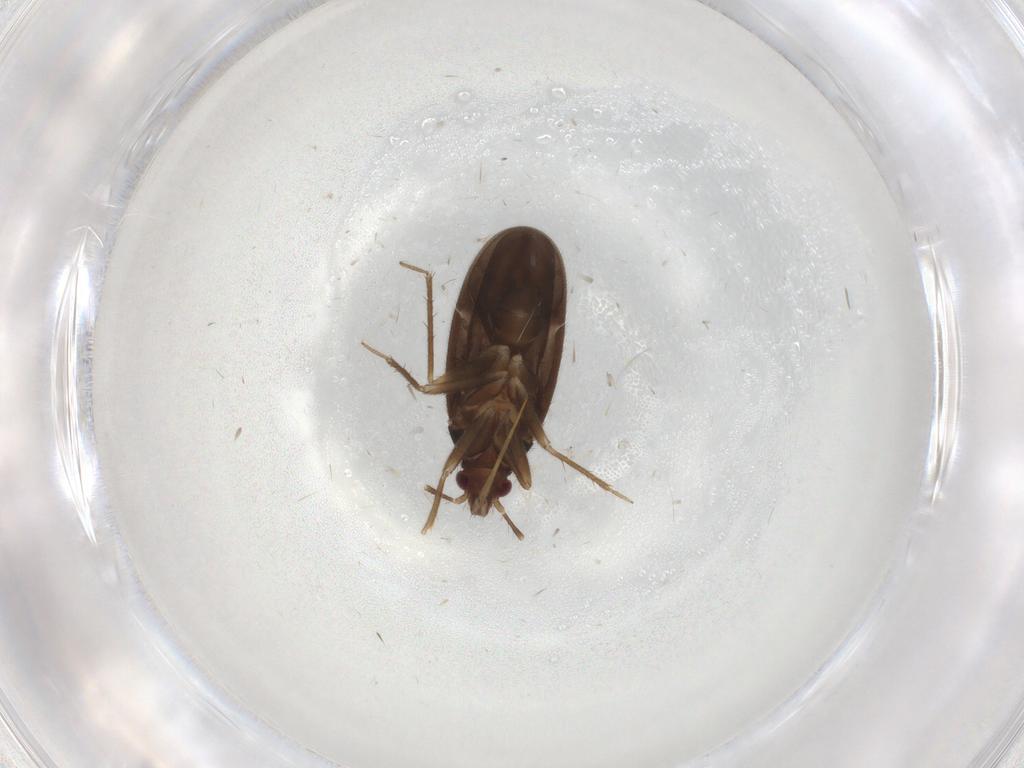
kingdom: Animalia
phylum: Arthropoda
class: Insecta
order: Hemiptera
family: Ceratocombidae
